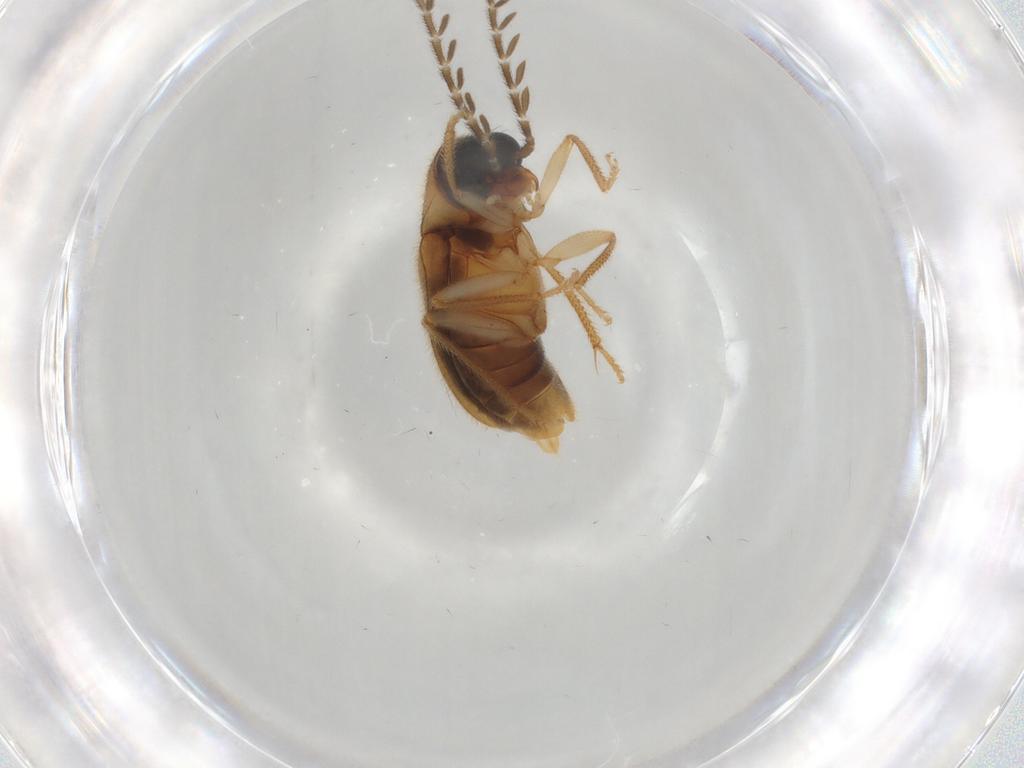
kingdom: Animalia
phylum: Arthropoda
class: Insecta
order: Coleoptera
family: Ptilodactylidae
